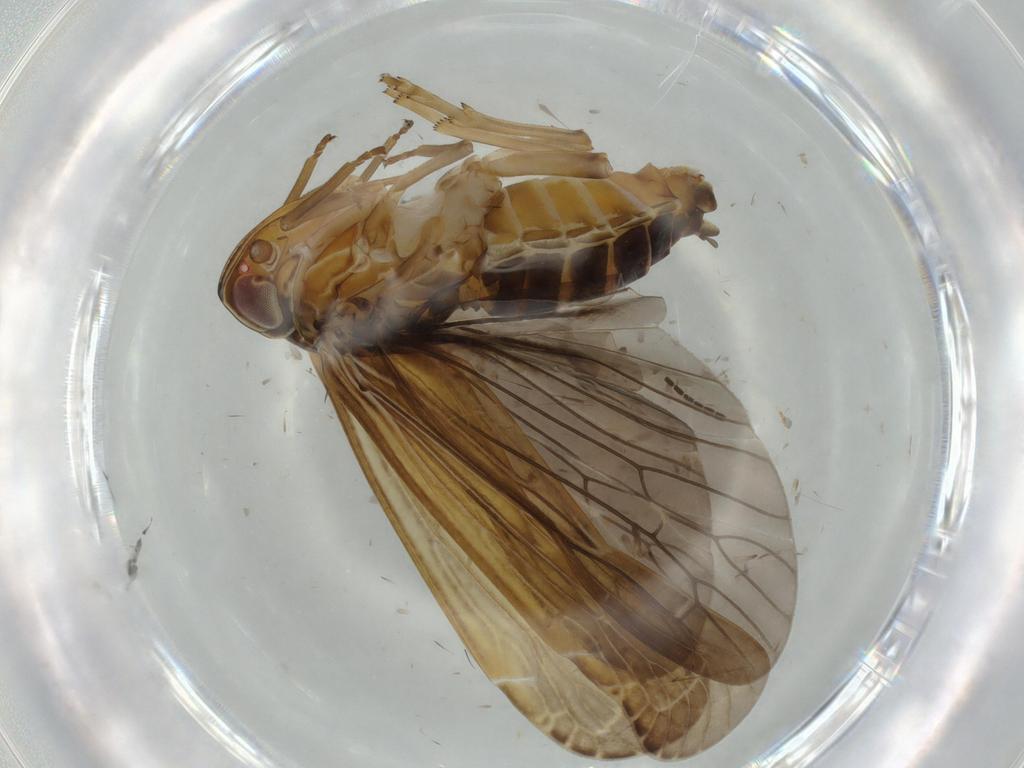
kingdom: Animalia
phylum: Arthropoda
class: Insecta
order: Hemiptera
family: Achilidae
